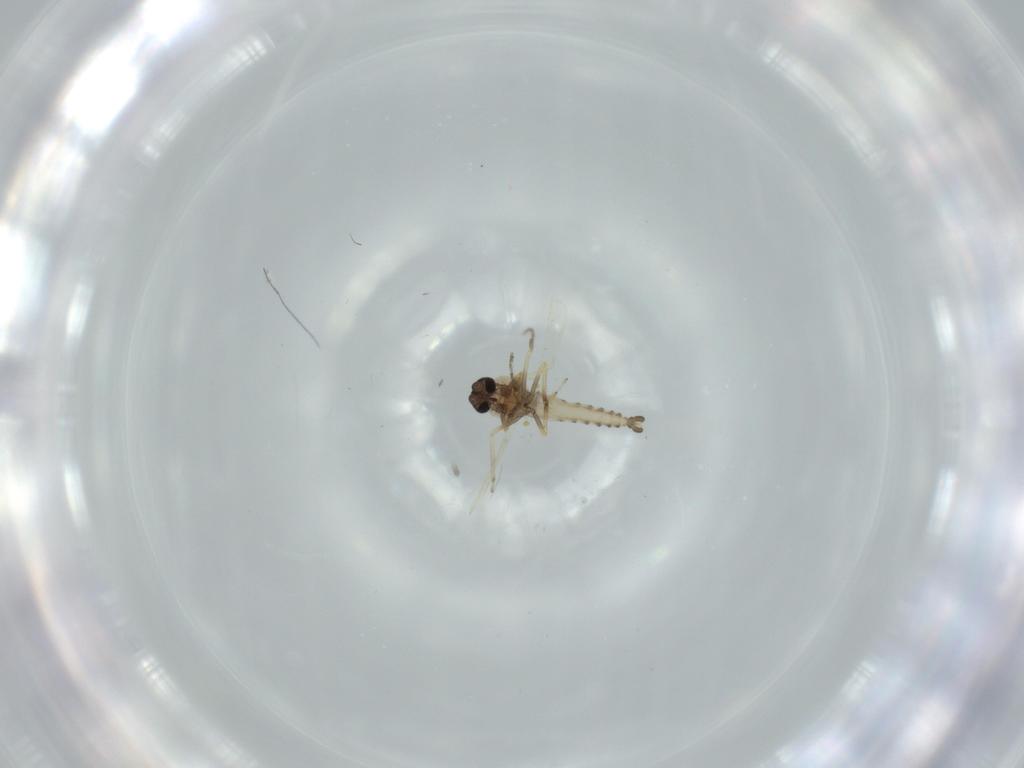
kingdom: Animalia
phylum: Arthropoda
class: Insecta
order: Diptera
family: Ceratopogonidae
